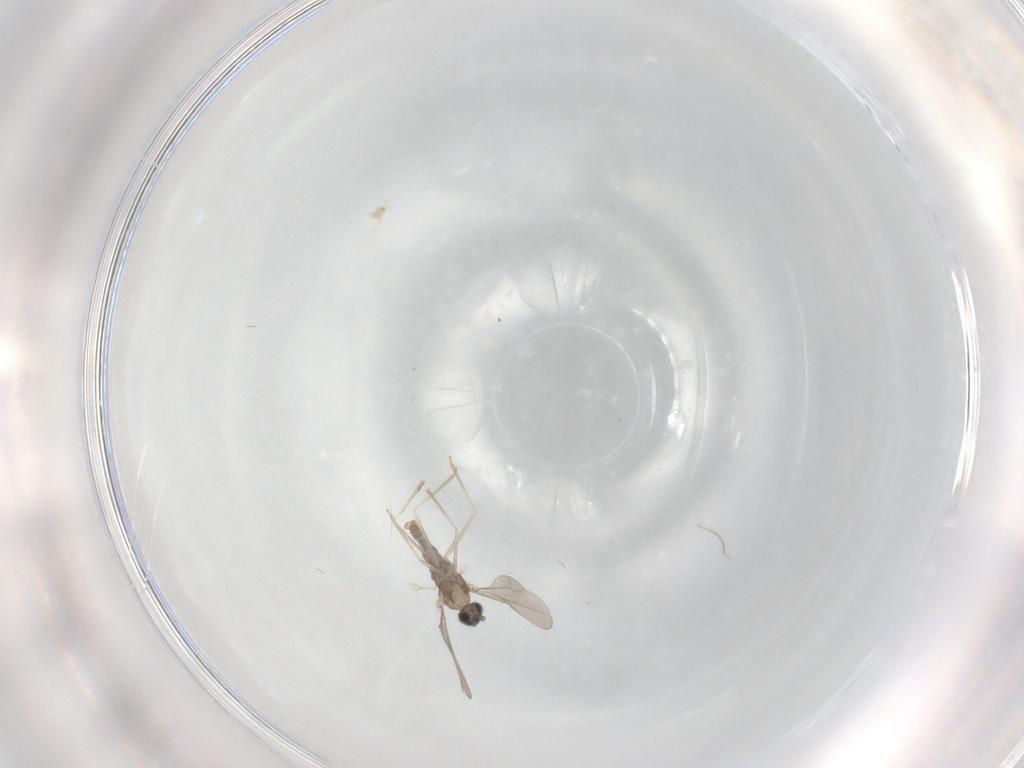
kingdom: Animalia
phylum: Arthropoda
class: Insecta
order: Diptera
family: Cecidomyiidae
